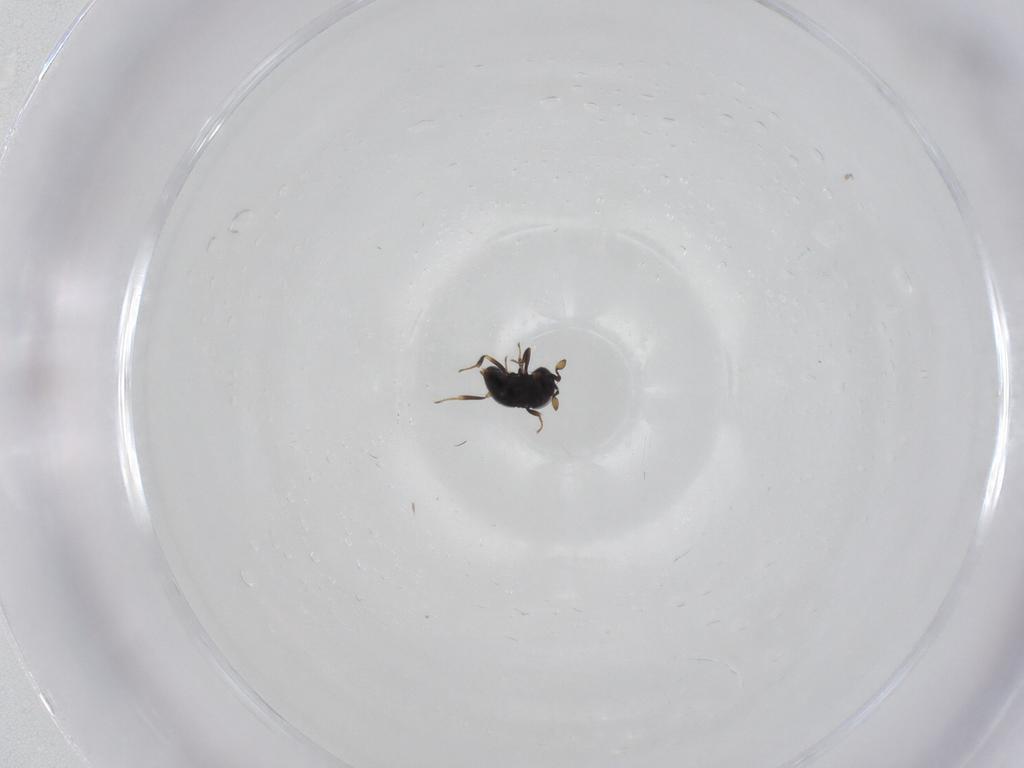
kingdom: Animalia
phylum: Arthropoda
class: Insecta
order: Hymenoptera
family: Scelionidae
